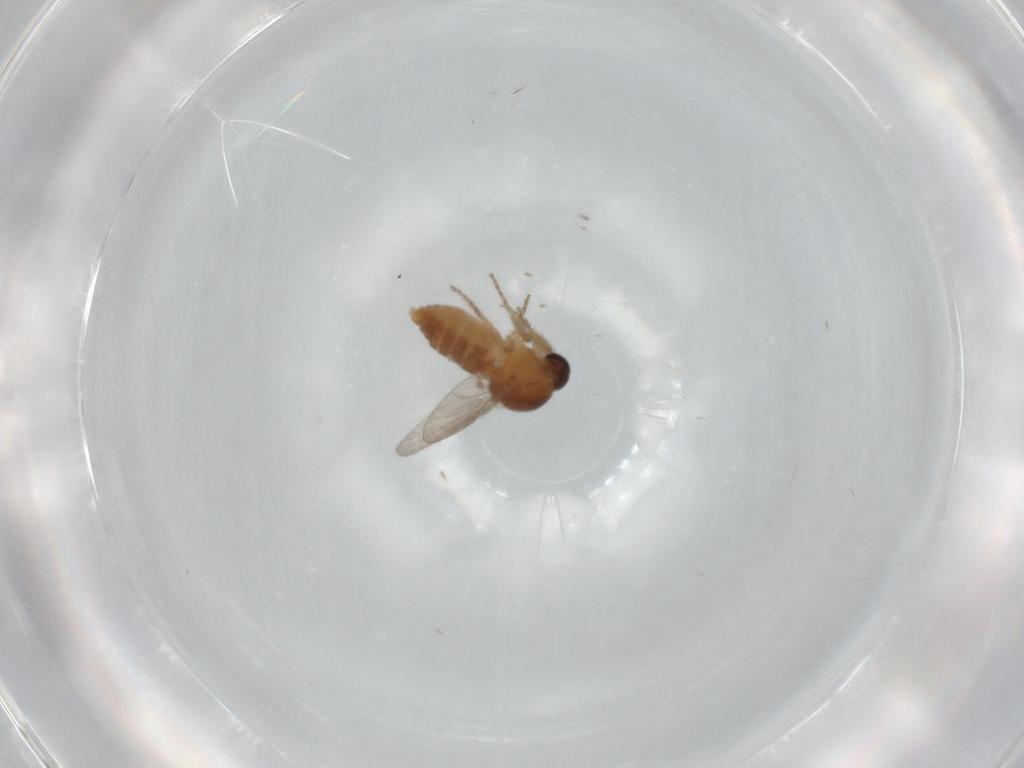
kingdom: Animalia
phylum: Arthropoda
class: Insecta
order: Diptera
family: Ceratopogonidae
